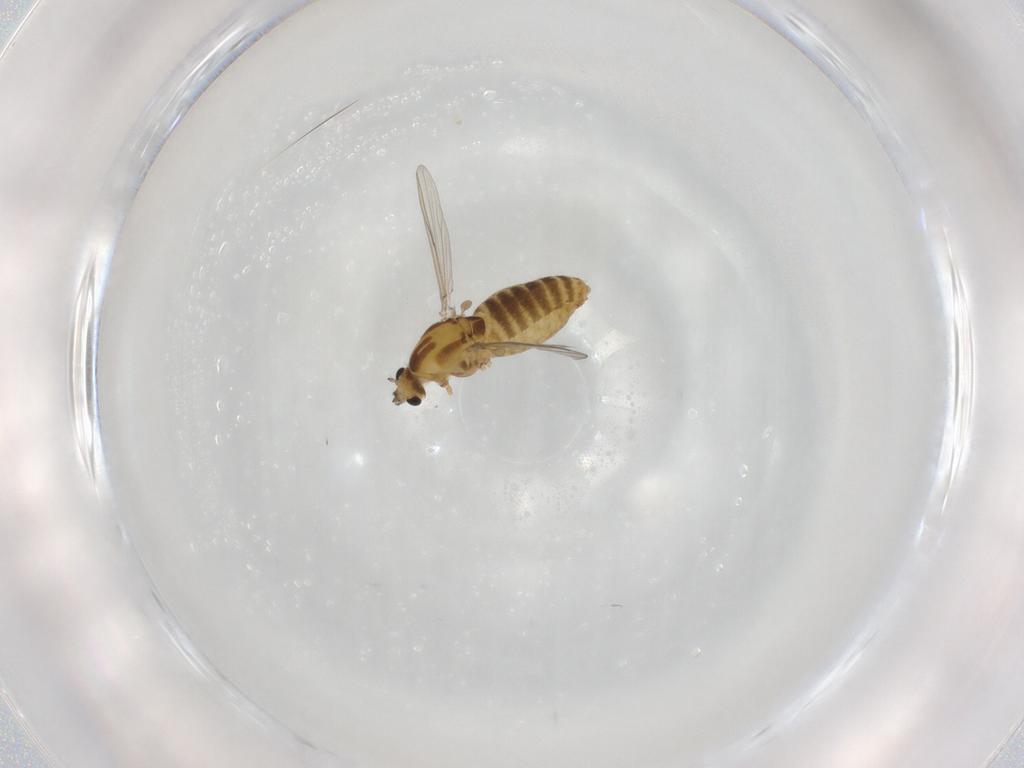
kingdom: Animalia
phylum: Arthropoda
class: Insecta
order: Diptera
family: Chironomidae
